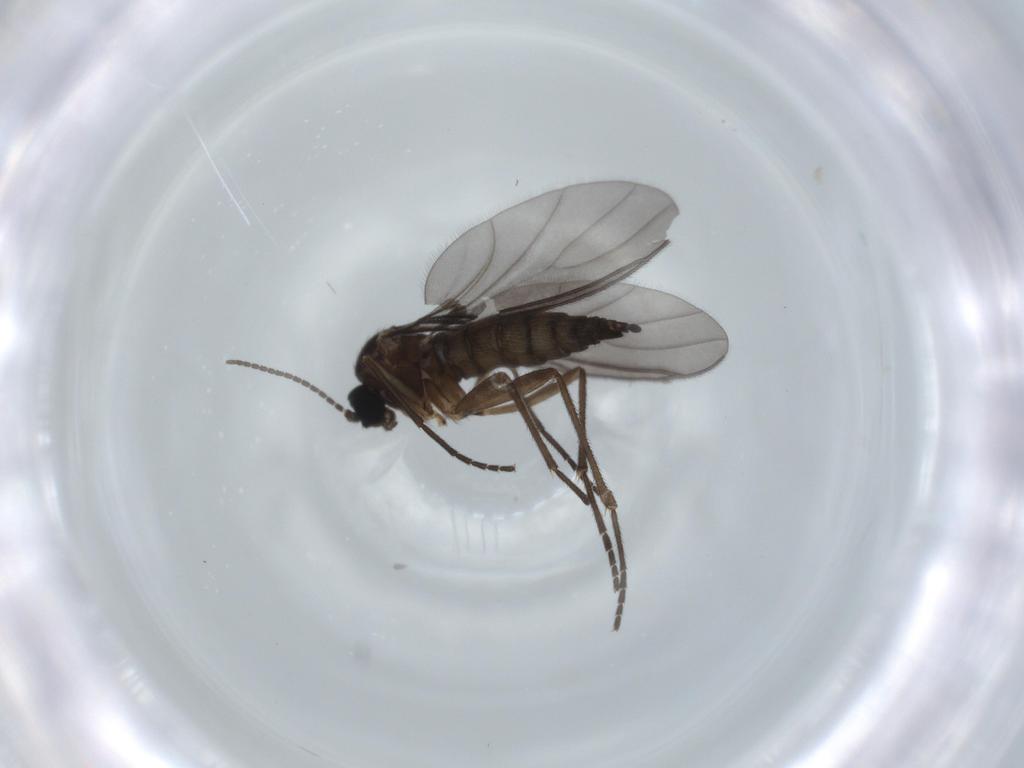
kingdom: Animalia
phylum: Arthropoda
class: Insecta
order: Diptera
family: Sciaridae
